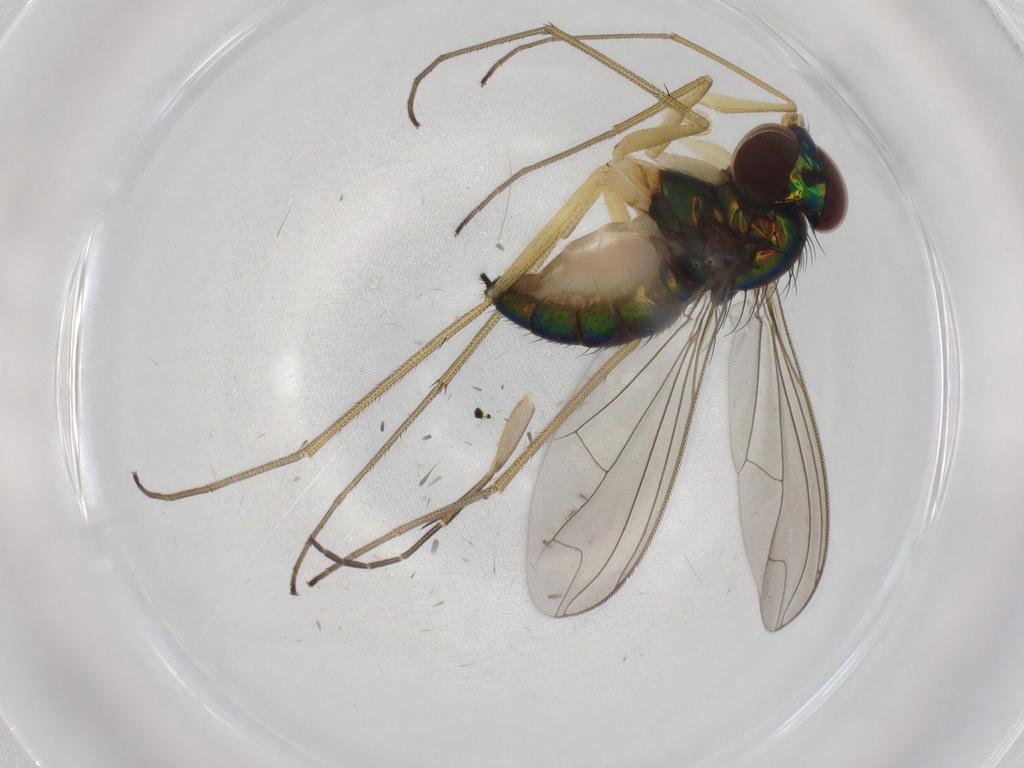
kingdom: Animalia
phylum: Arthropoda
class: Insecta
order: Diptera
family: Dolichopodidae
